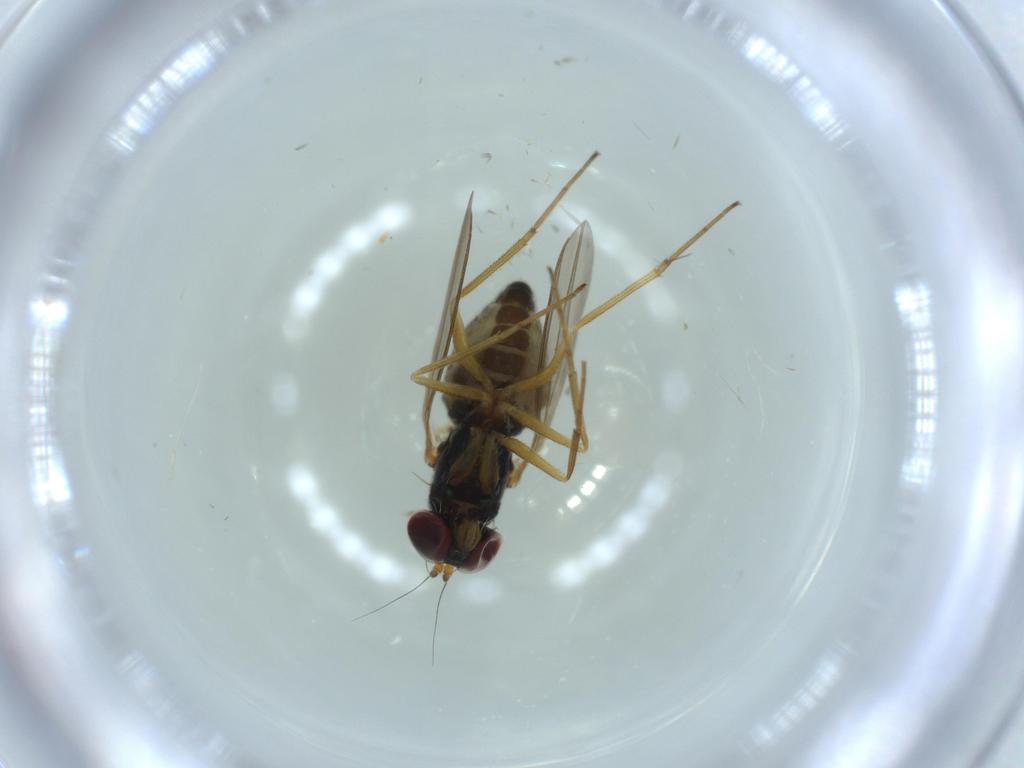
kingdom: Animalia
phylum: Arthropoda
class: Insecta
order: Diptera
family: Dolichopodidae
